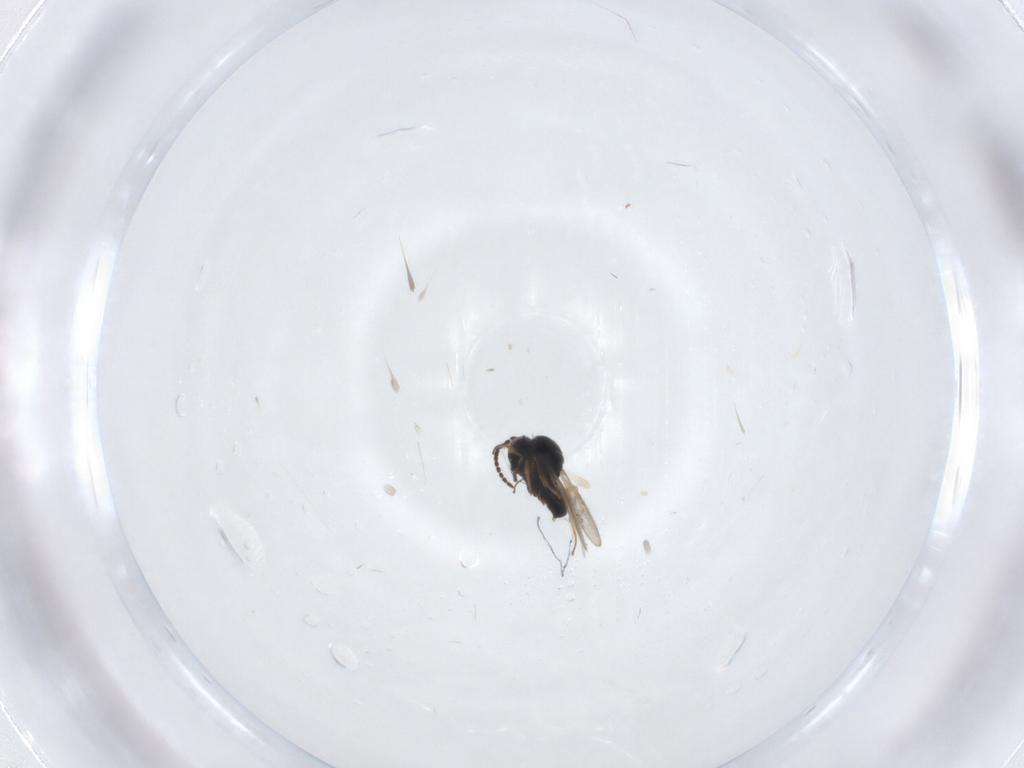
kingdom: Animalia
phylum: Arthropoda
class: Insecta
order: Hymenoptera
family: Scelionidae
